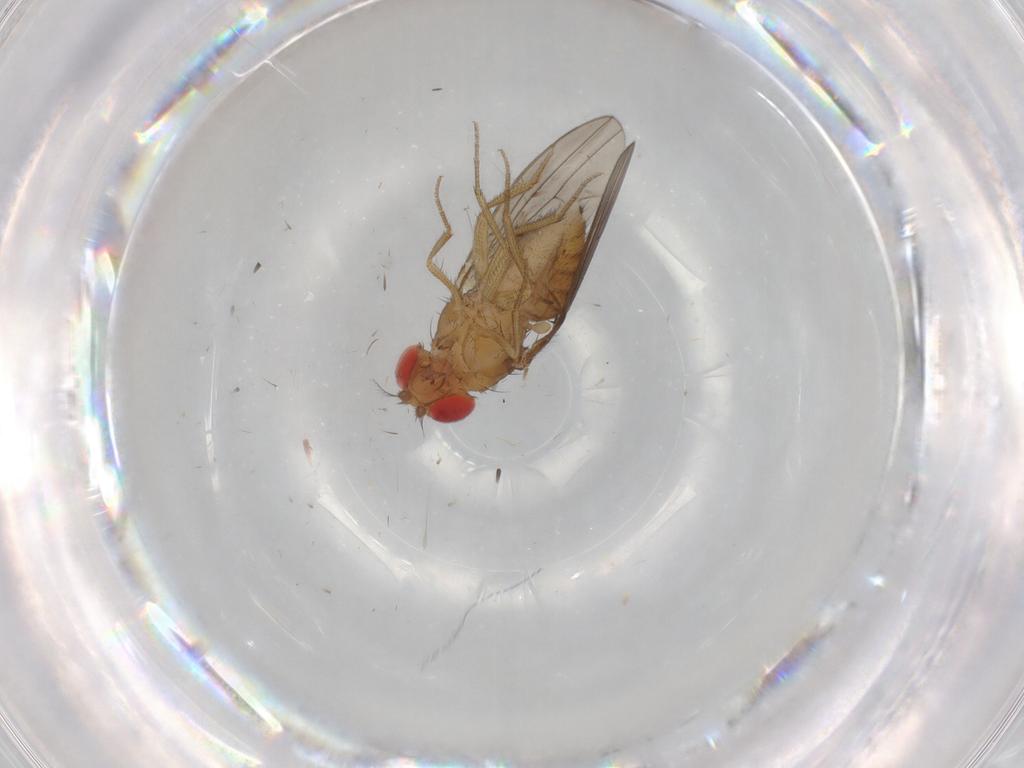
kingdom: Animalia
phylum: Arthropoda
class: Insecta
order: Diptera
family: Drosophilidae
